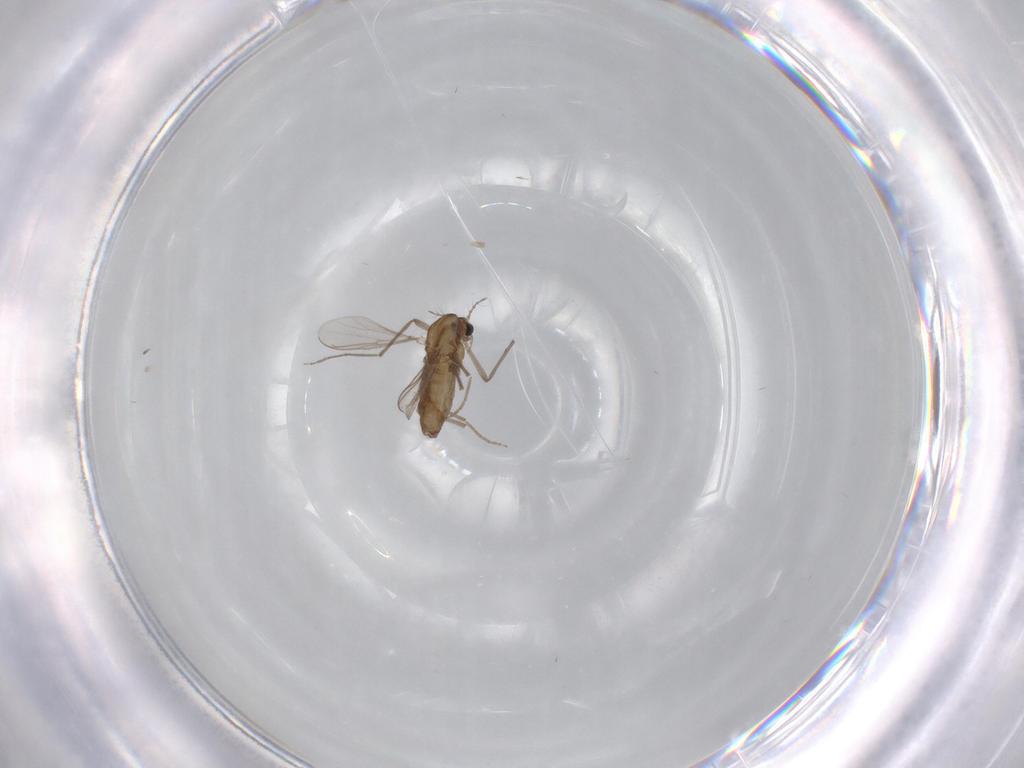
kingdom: Animalia
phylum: Arthropoda
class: Insecta
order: Diptera
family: Chironomidae
